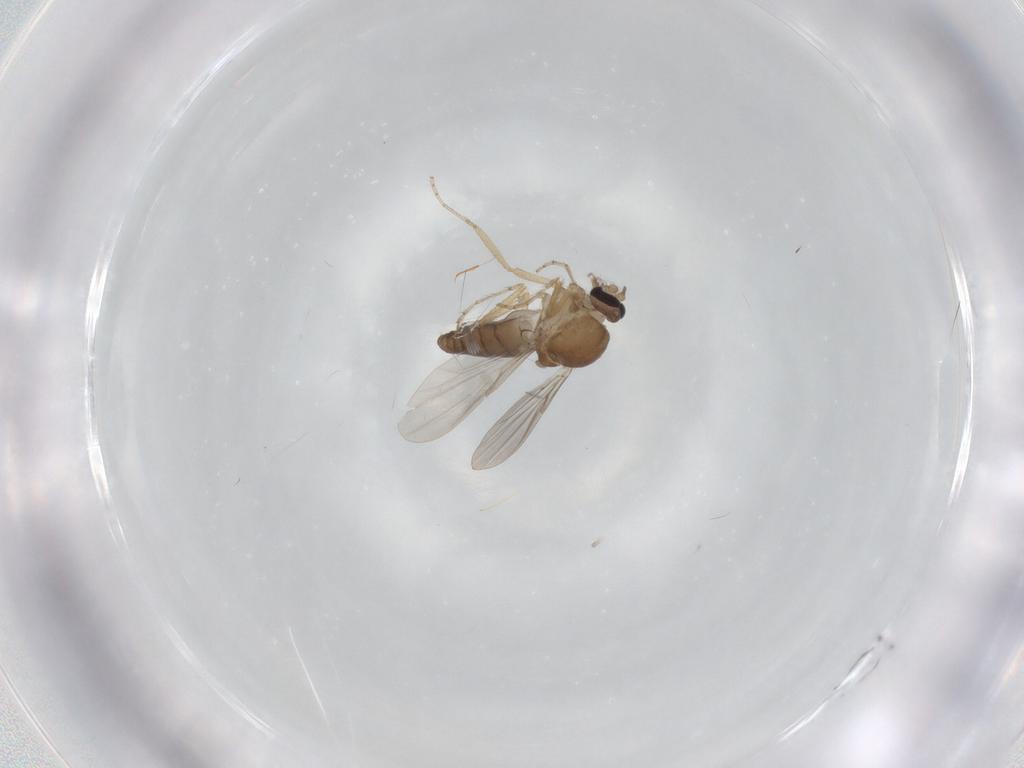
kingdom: Animalia
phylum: Arthropoda
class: Insecta
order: Diptera
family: Ceratopogonidae
